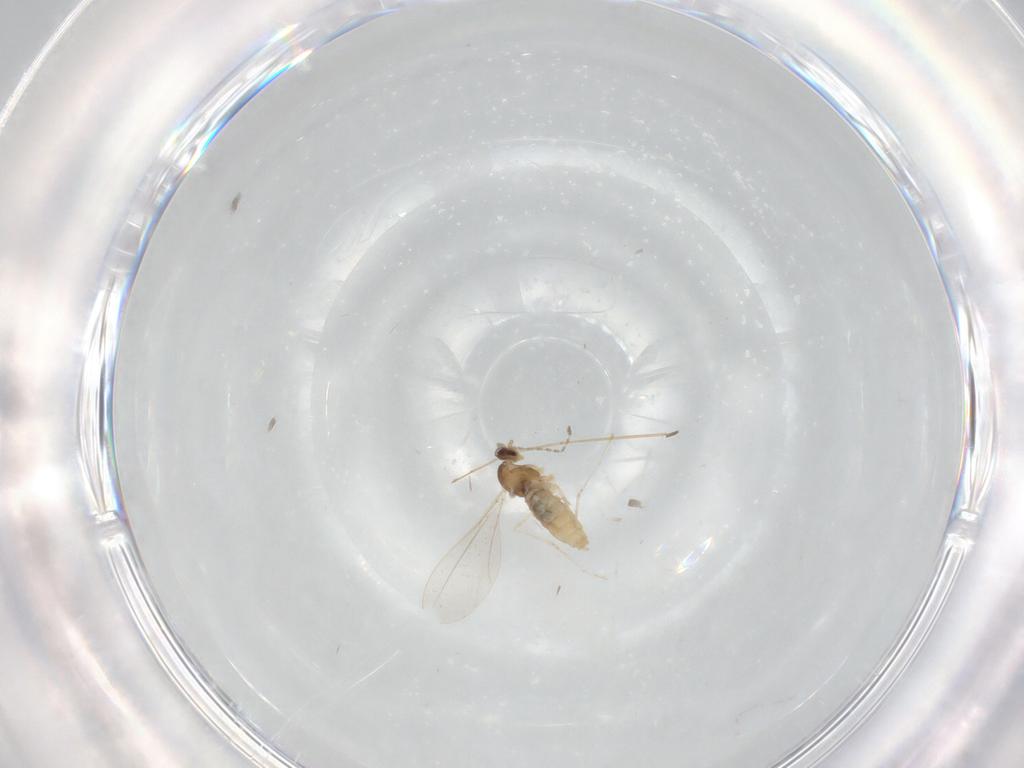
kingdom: Animalia
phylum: Arthropoda
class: Insecta
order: Diptera
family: Cecidomyiidae
